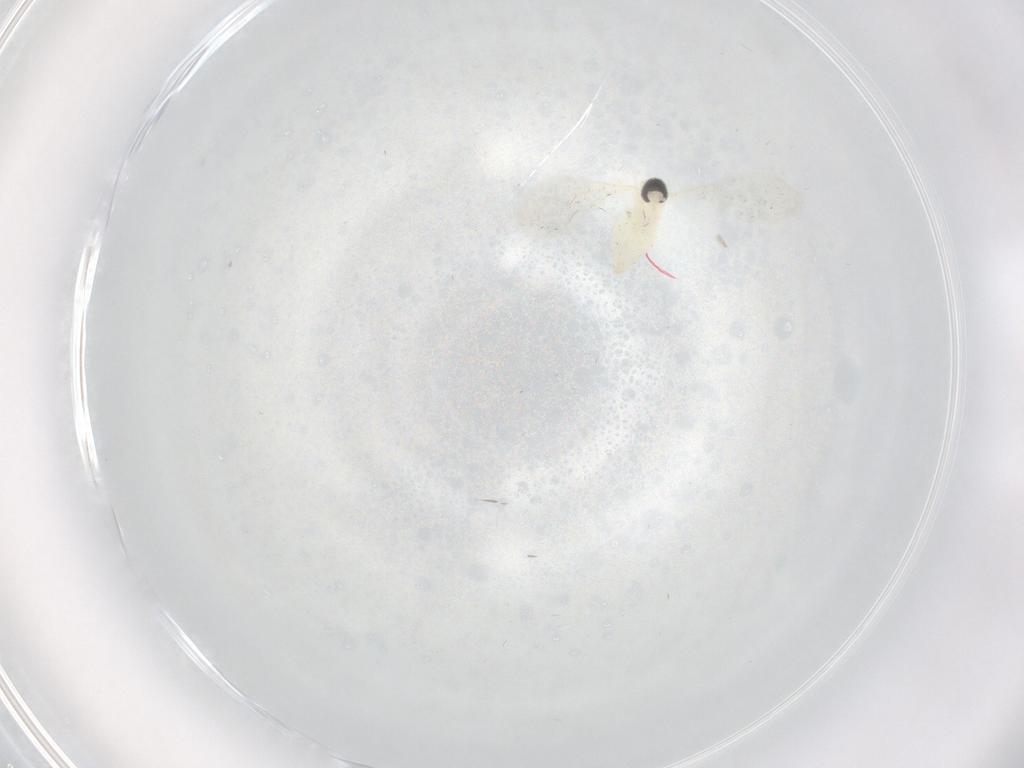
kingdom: Animalia
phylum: Arthropoda
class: Insecta
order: Diptera
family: Cecidomyiidae
